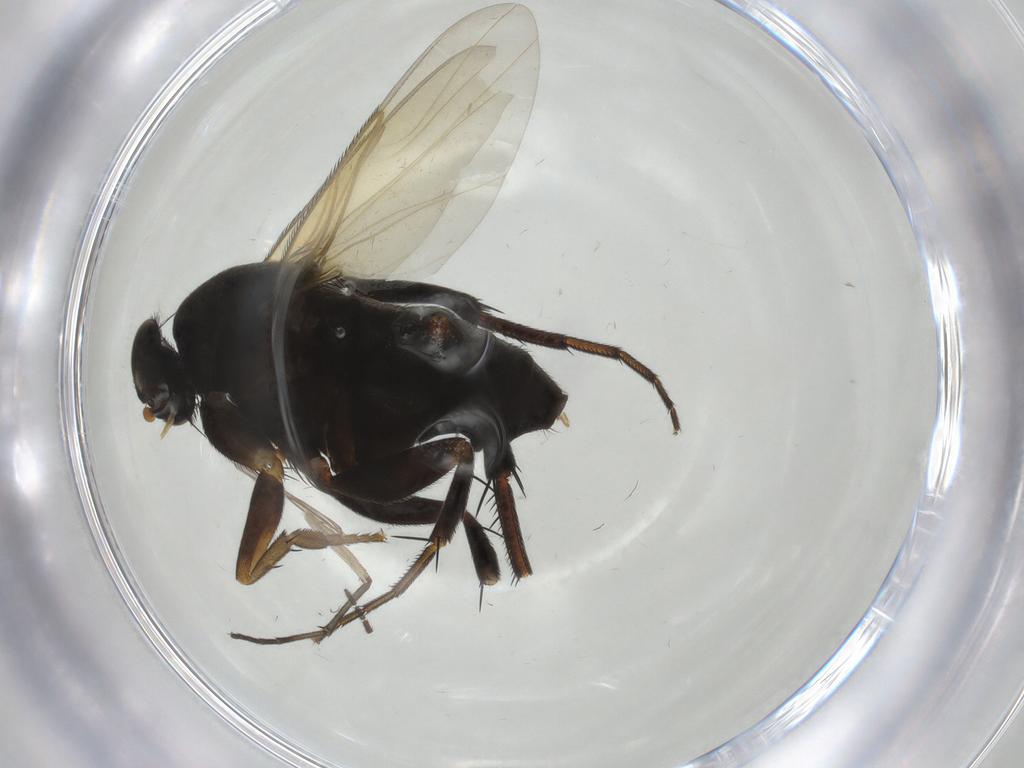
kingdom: Animalia
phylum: Arthropoda
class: Insecta
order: Diptera
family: Phoridae
